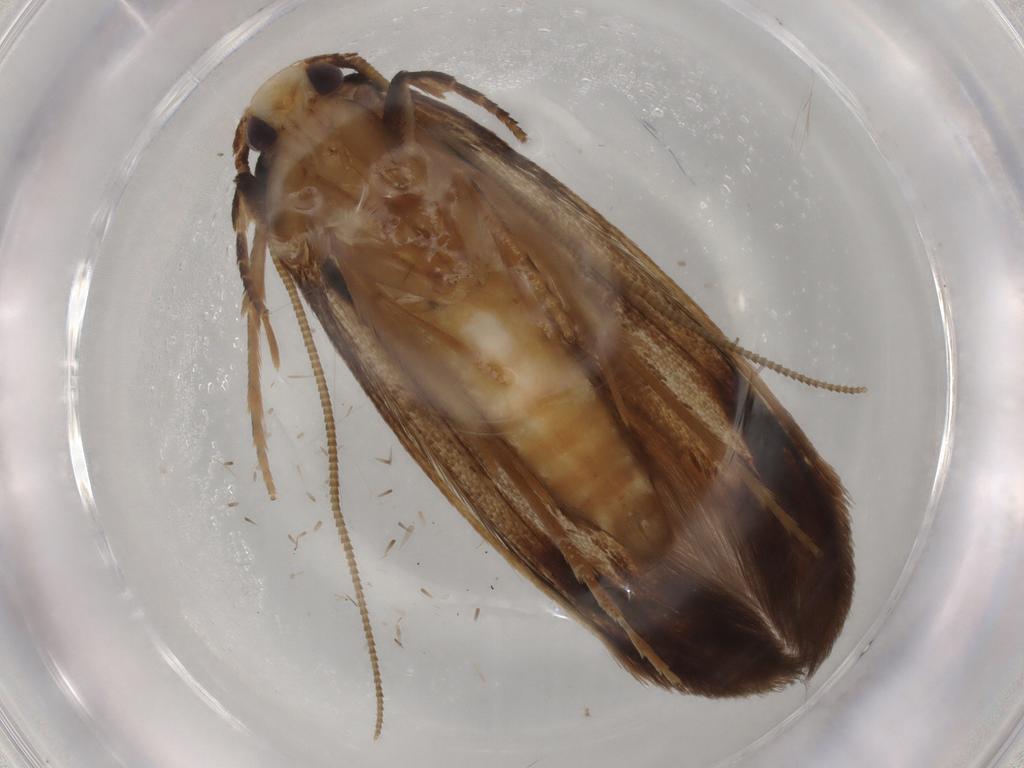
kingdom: Animalia
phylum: Arthropoda
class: Insecta
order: Lepidoptera
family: Tineidae
